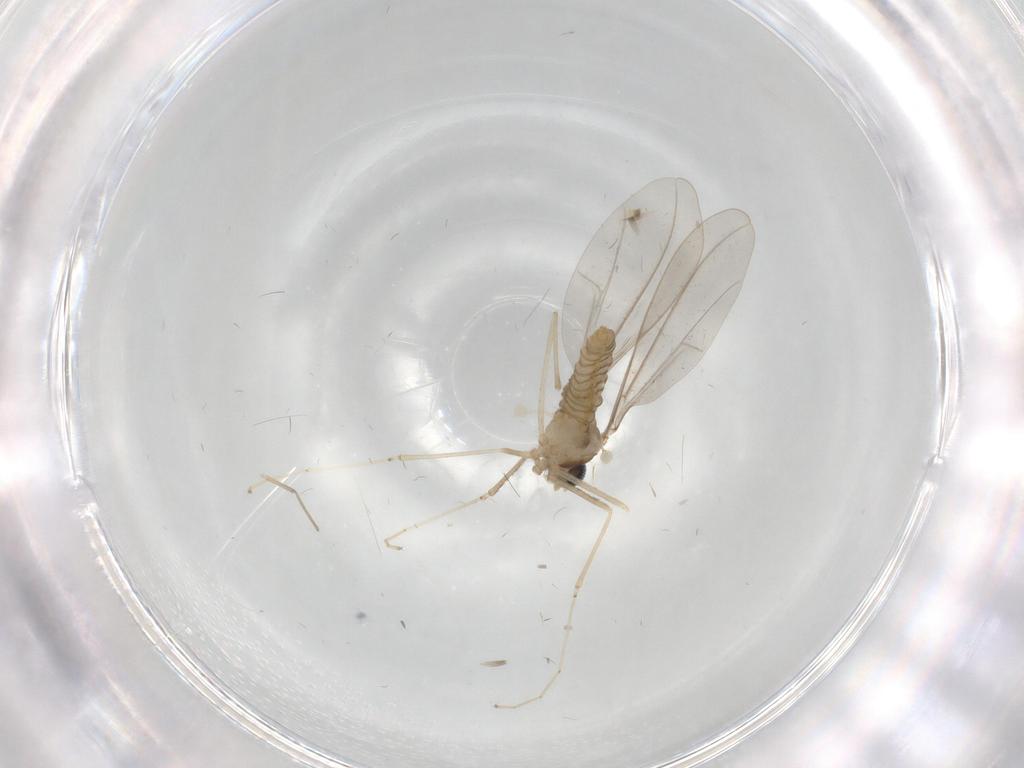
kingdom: Animalia
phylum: Arthropoda
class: Insecta
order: Diptera
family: Cecidomyiidae
